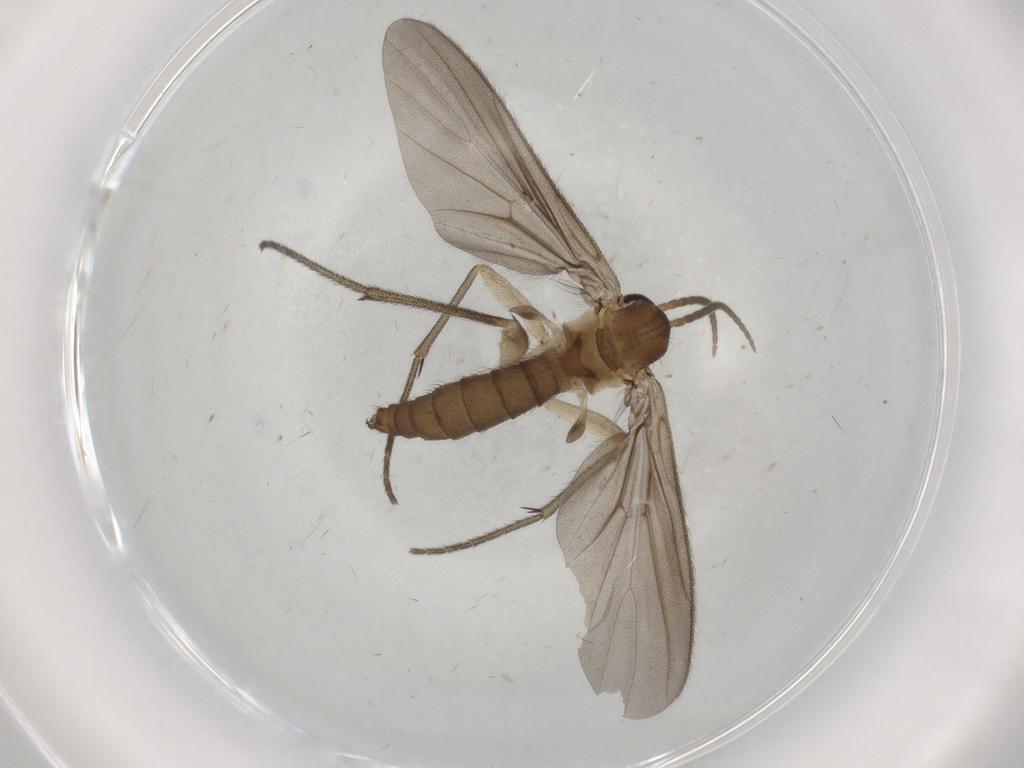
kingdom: Animalia
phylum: Arthropoda
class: Insecta
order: Diptera
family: Diadocidiidae
